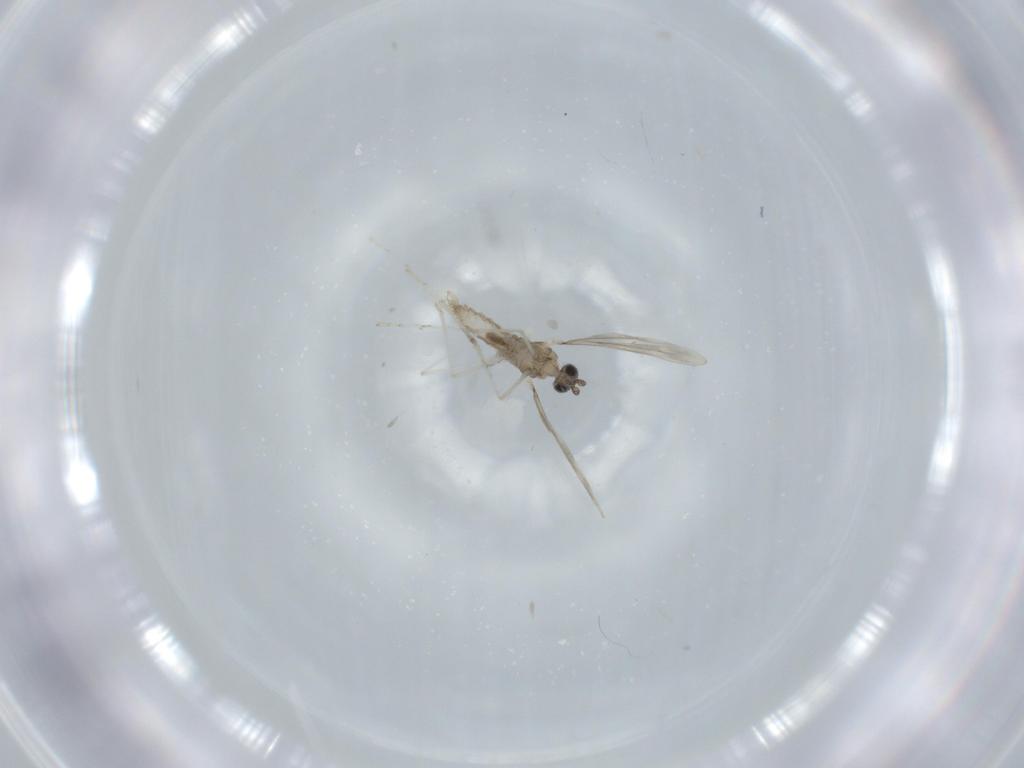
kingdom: Animalia
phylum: Arthropoda
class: Insecta
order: Diptera
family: Cecidomyiidae
